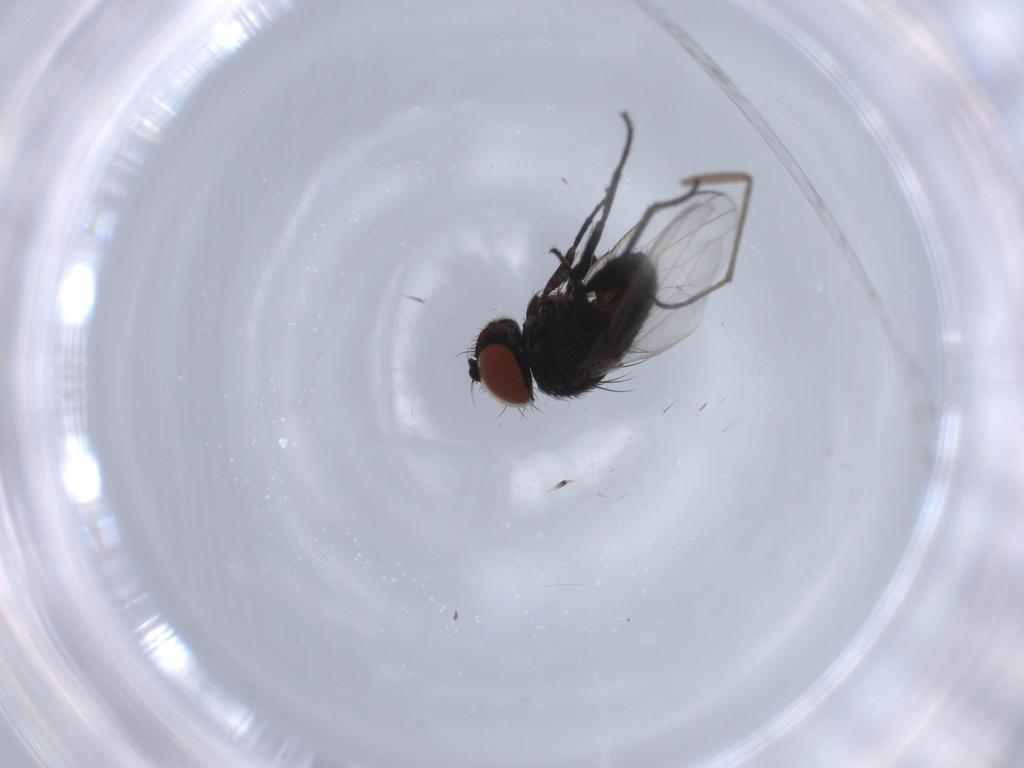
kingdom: Animalia
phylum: Arthropoda
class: Insecta
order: Diptera
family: Milichiidae
